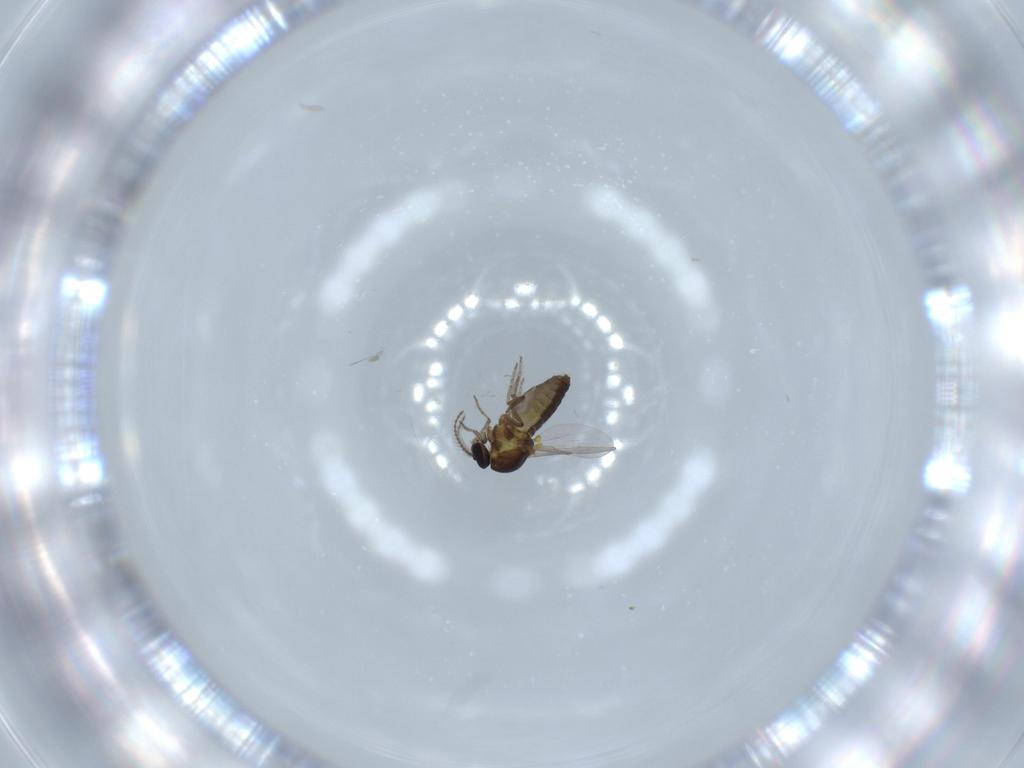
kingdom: Animalia
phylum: Arthropoda
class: Insecta
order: Diptera
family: Ceratopogonidae
